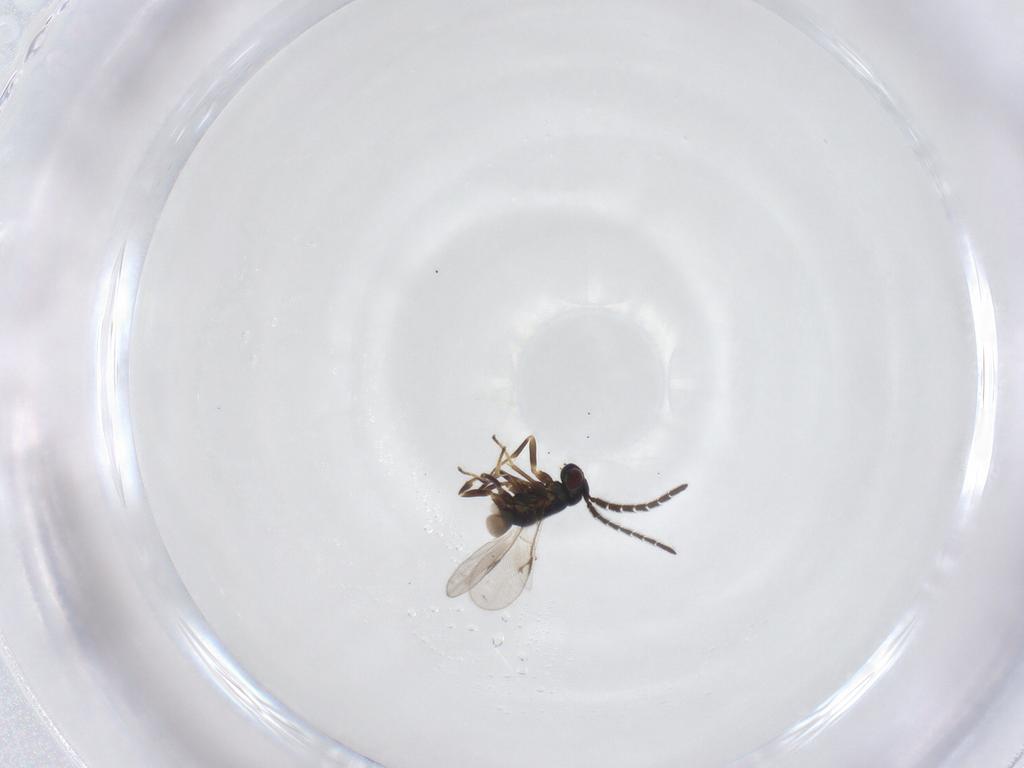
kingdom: Animalia
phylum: Arthropoda
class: Insecta
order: Hymenoptera
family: Encyrtidae
